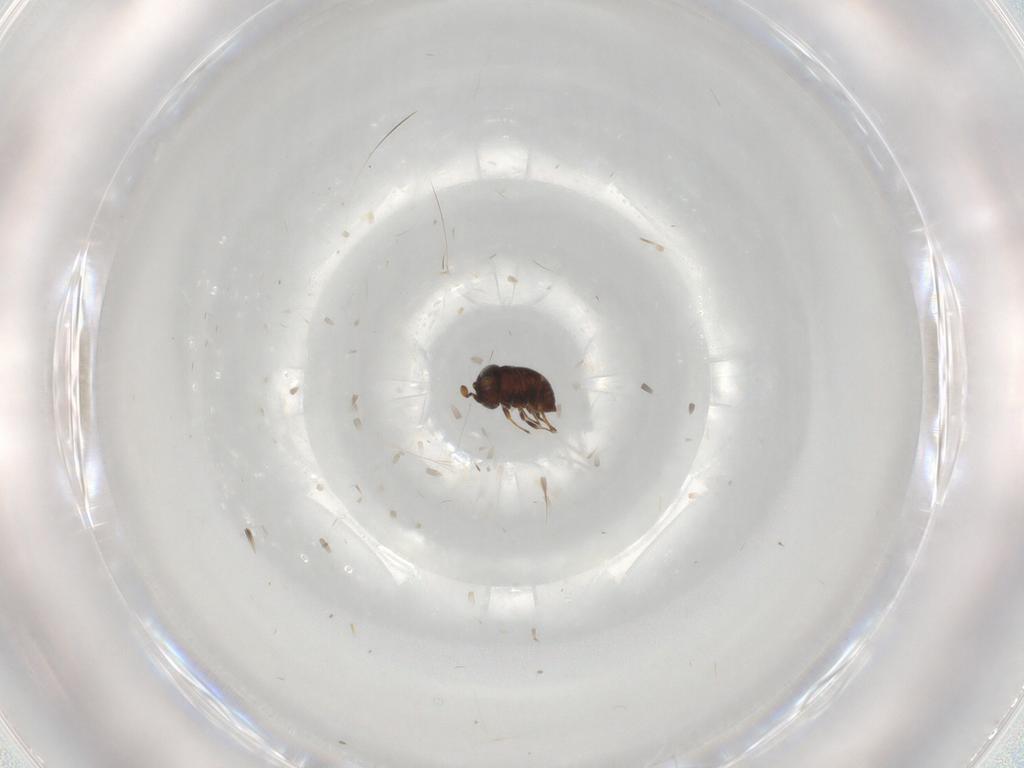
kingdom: Animalia
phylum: Arthropoda
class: Insecta
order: Hymenoptera
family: Scelionidae
